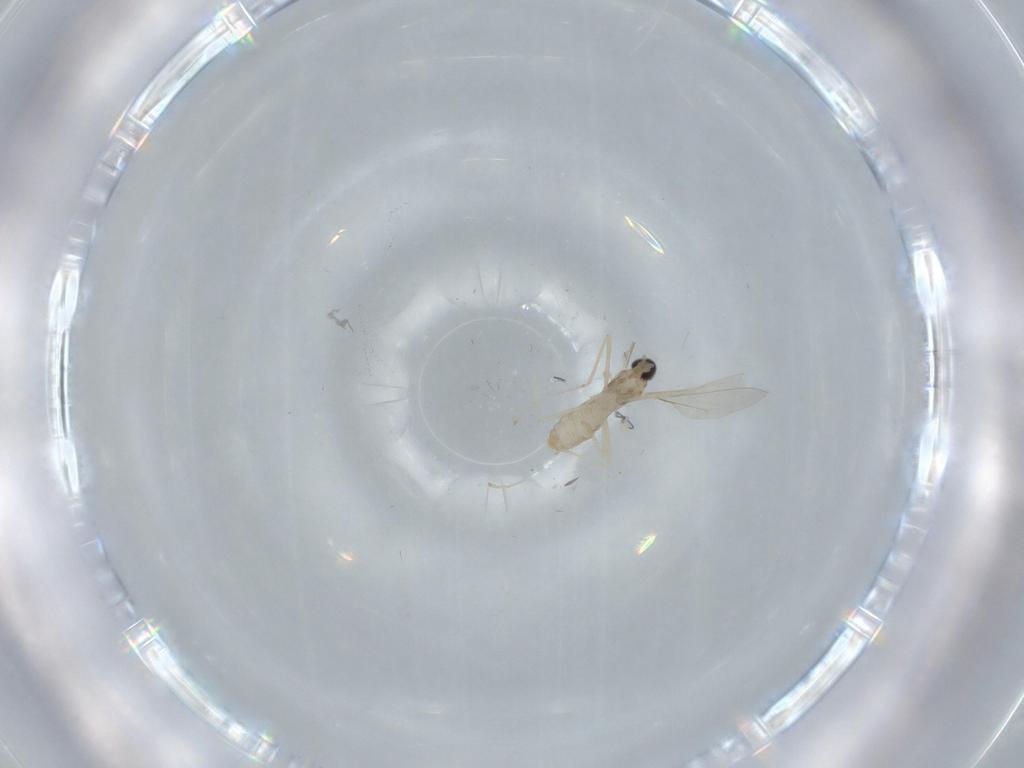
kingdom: Animalia
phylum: Arthropoda
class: Insecta
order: Diptera
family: Cecidomyiidae
